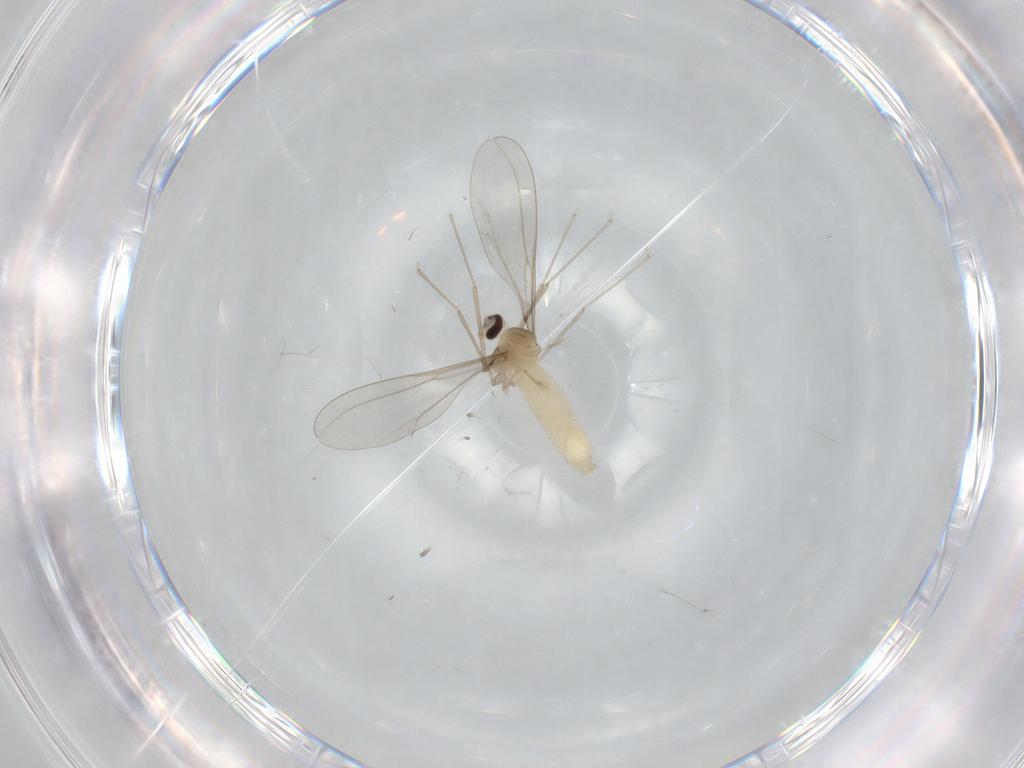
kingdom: Animalia
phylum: Arthropoda
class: Insecta
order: Diptera
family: Cecidomyiidae
